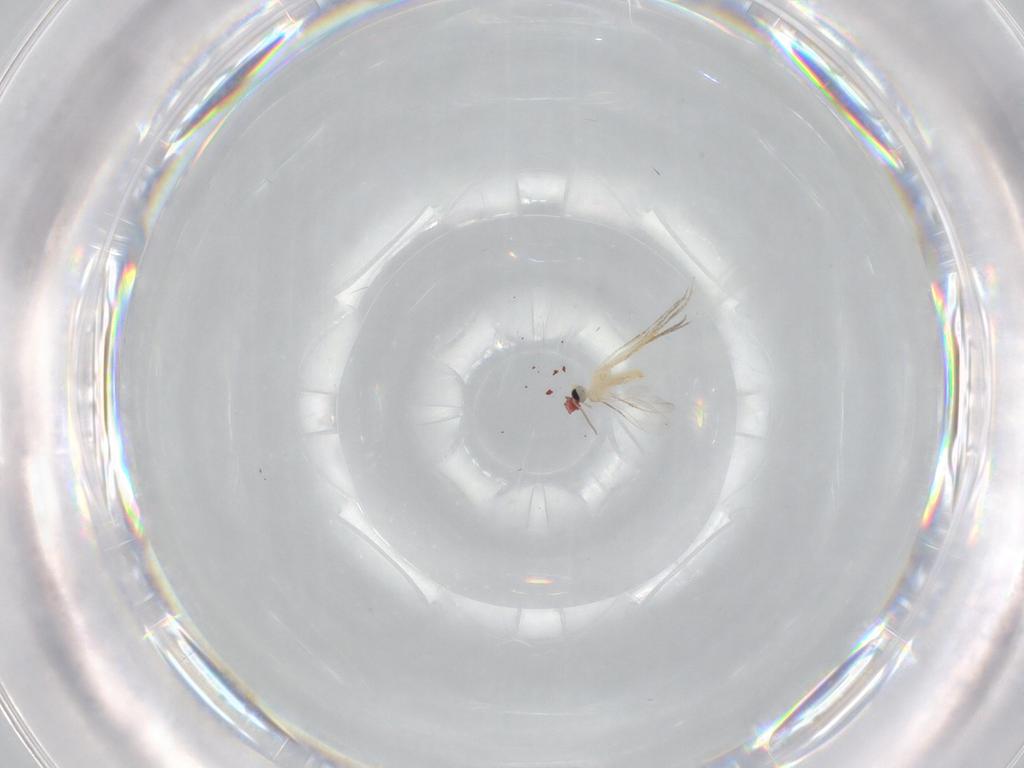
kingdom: Animalia
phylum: Arthropoda
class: Insecta
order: Diptera
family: Cecidomyiidae
